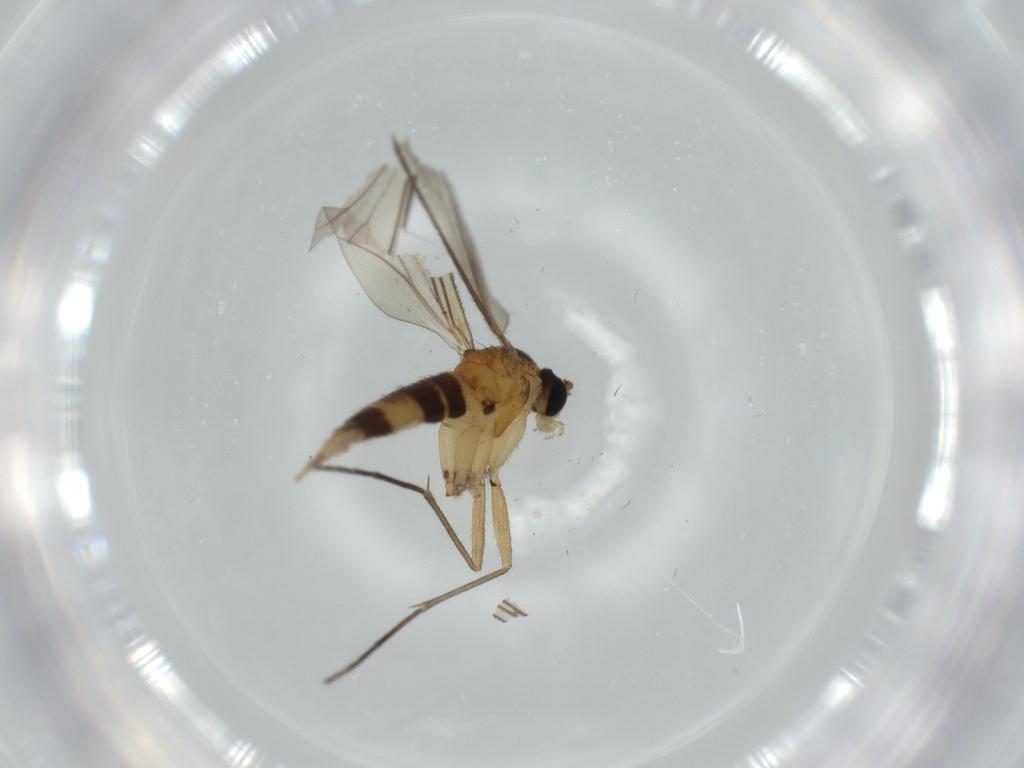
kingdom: Animalia
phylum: Arthropoda
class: Insecta
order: Diptera
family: Sciaridae
